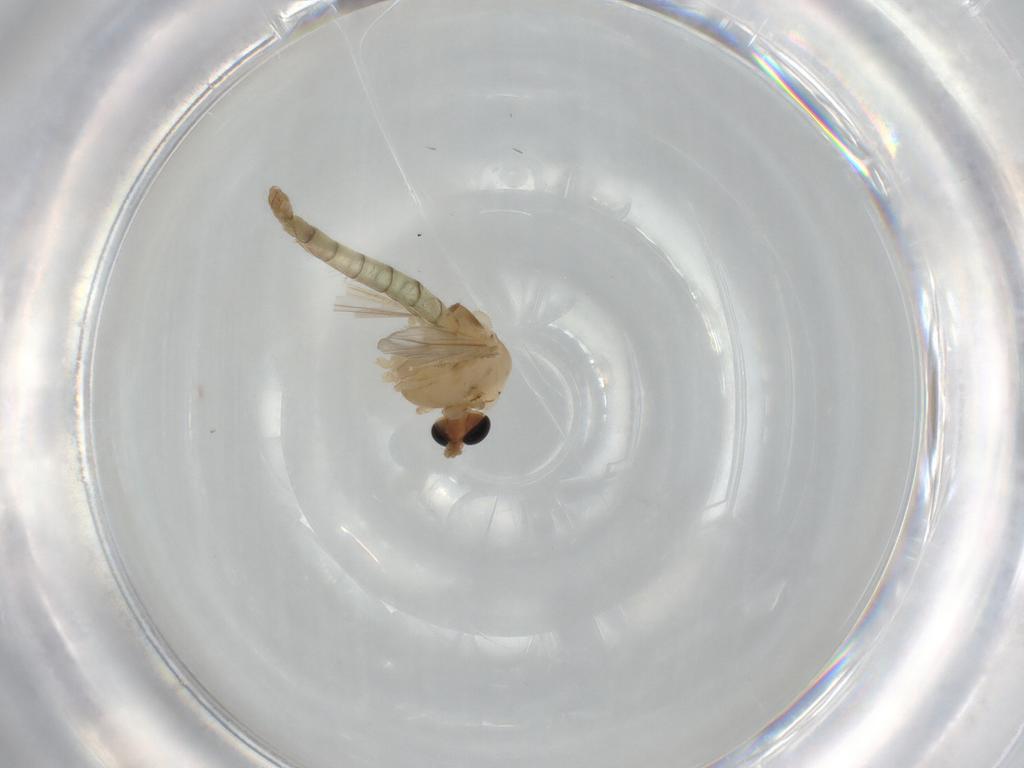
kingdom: Animalia
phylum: Arthropoda
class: Insecta
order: Diptera
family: Chironomidae
